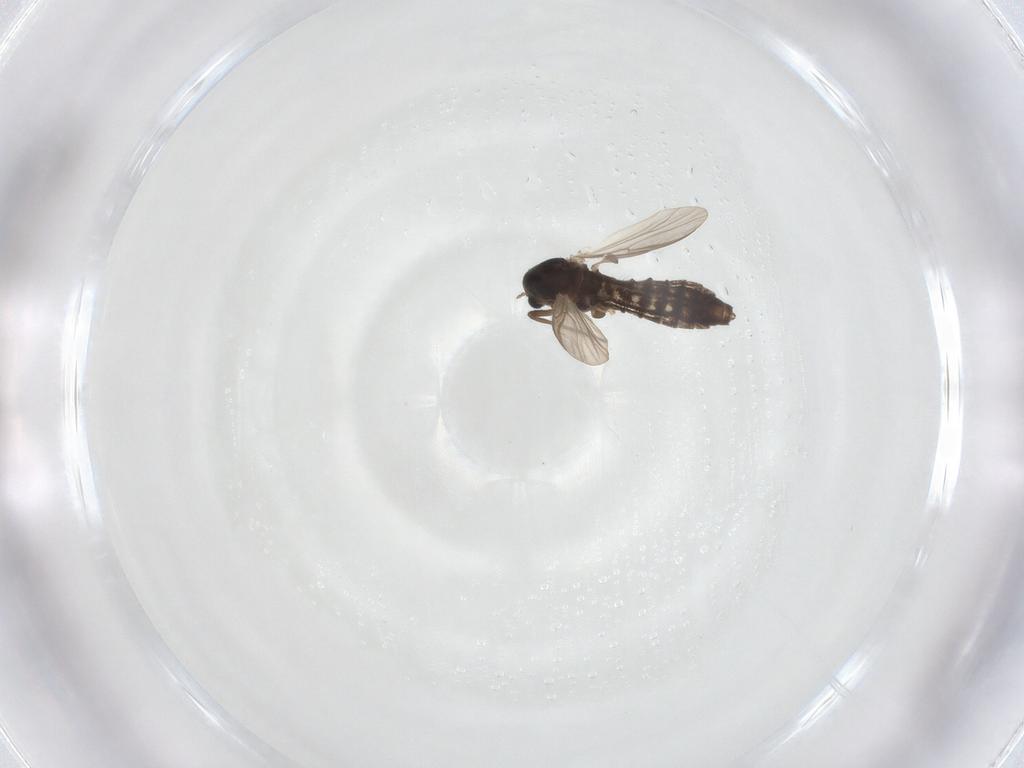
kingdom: Animalia
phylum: Arthropoda
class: Insecta
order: Diptera
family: Chironomidae
